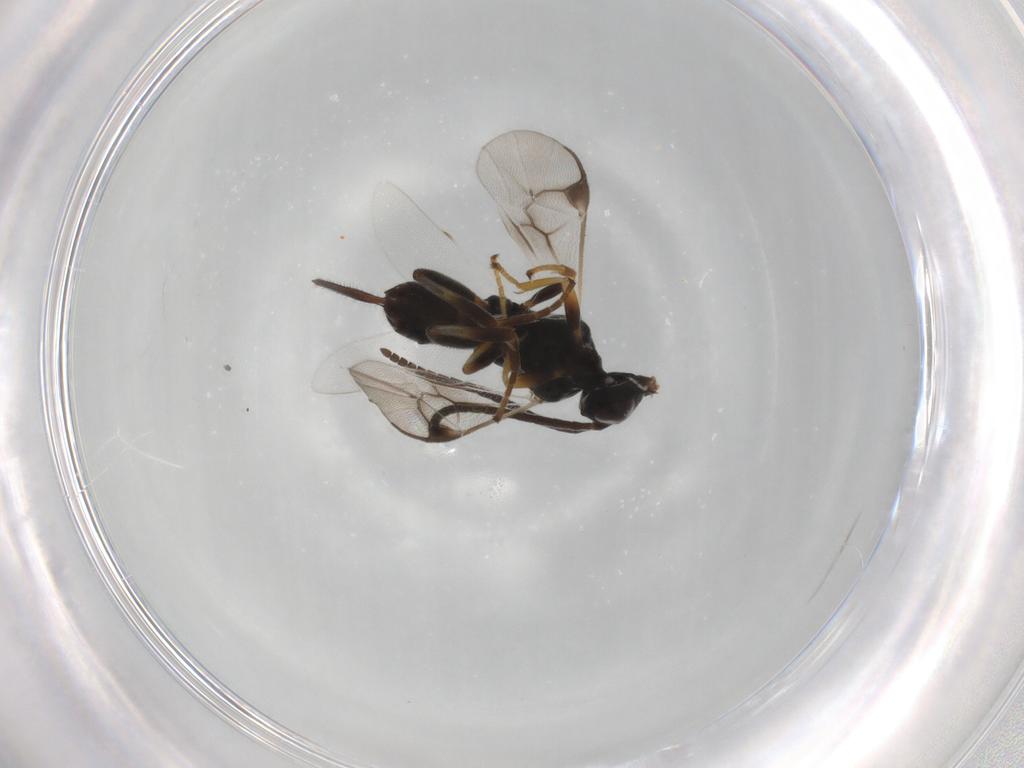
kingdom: Animalia
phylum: Arthropoda
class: Insecta
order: Hymenoptera
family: Braconidae
